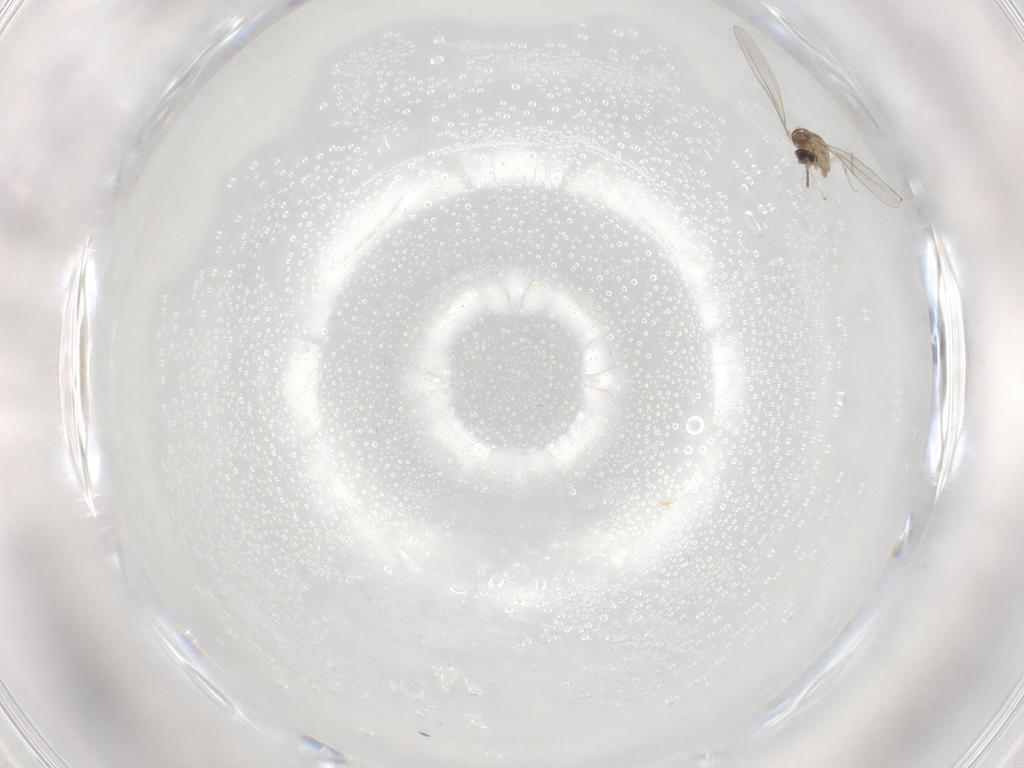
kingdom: Animalia
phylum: Arthropoda
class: Insecta
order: Diptera
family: Cecidomyiidae
